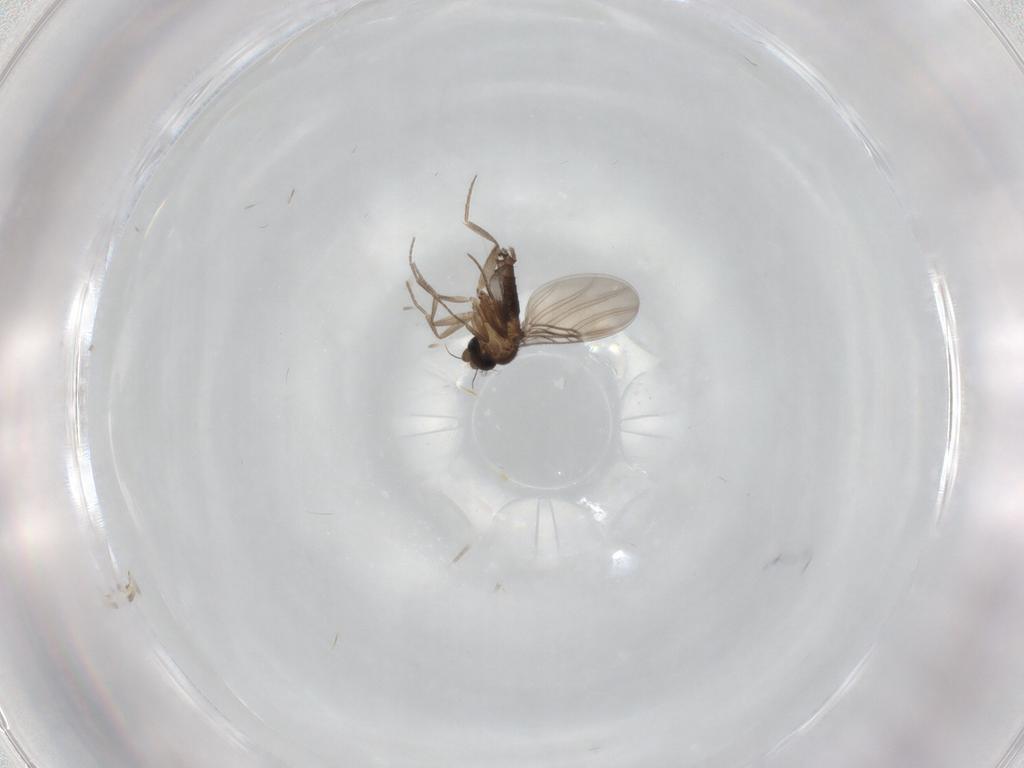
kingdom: Animalia
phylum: Arthropoda
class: Insecta
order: Diptera
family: Phoridae
